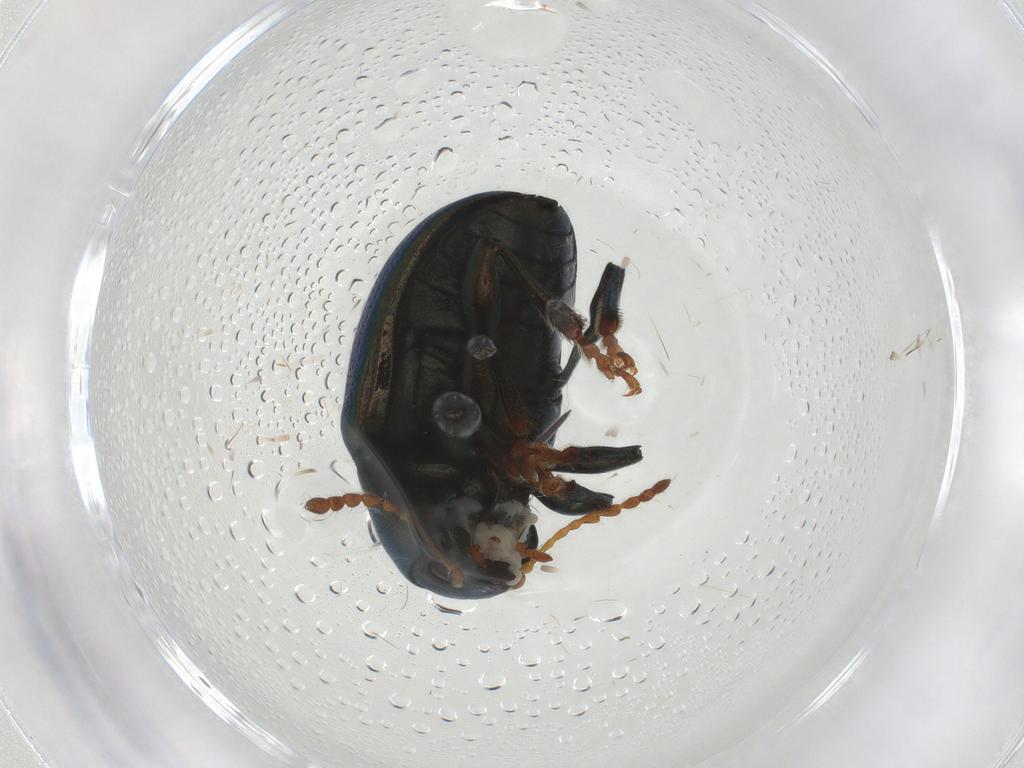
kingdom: Animalia
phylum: Arthropoda
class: Insecta
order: Coleoptera
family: Chrysomelidae
